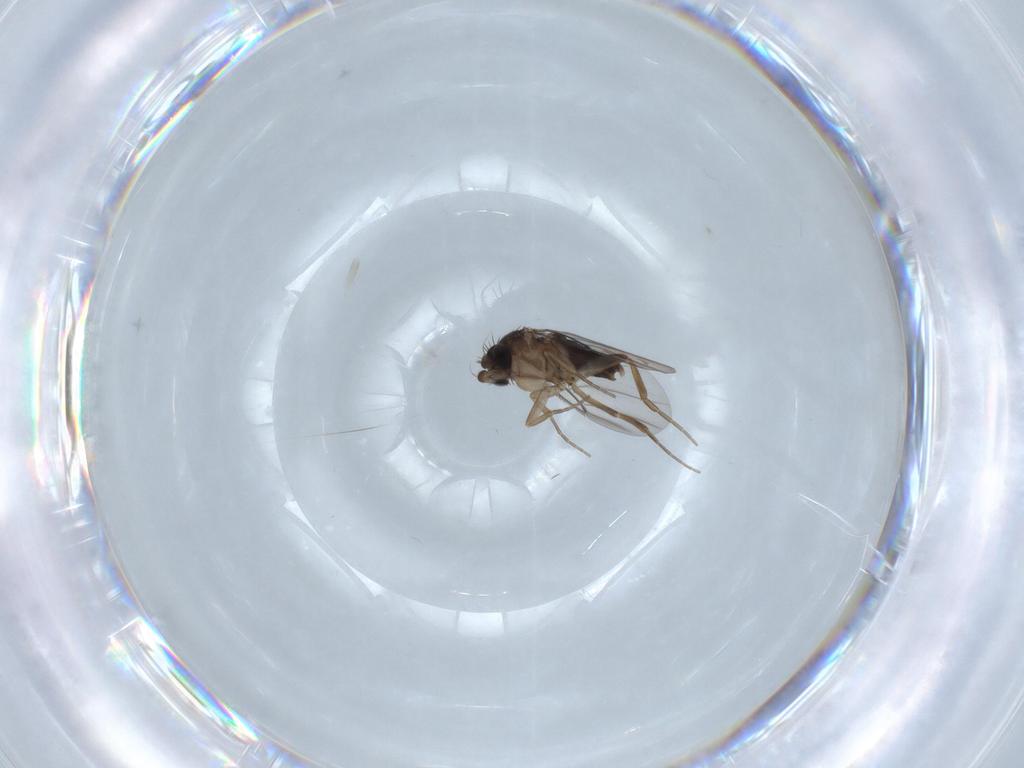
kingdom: Animalia
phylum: Arthropoda
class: Insecta
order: Diptera
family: Phoridae
